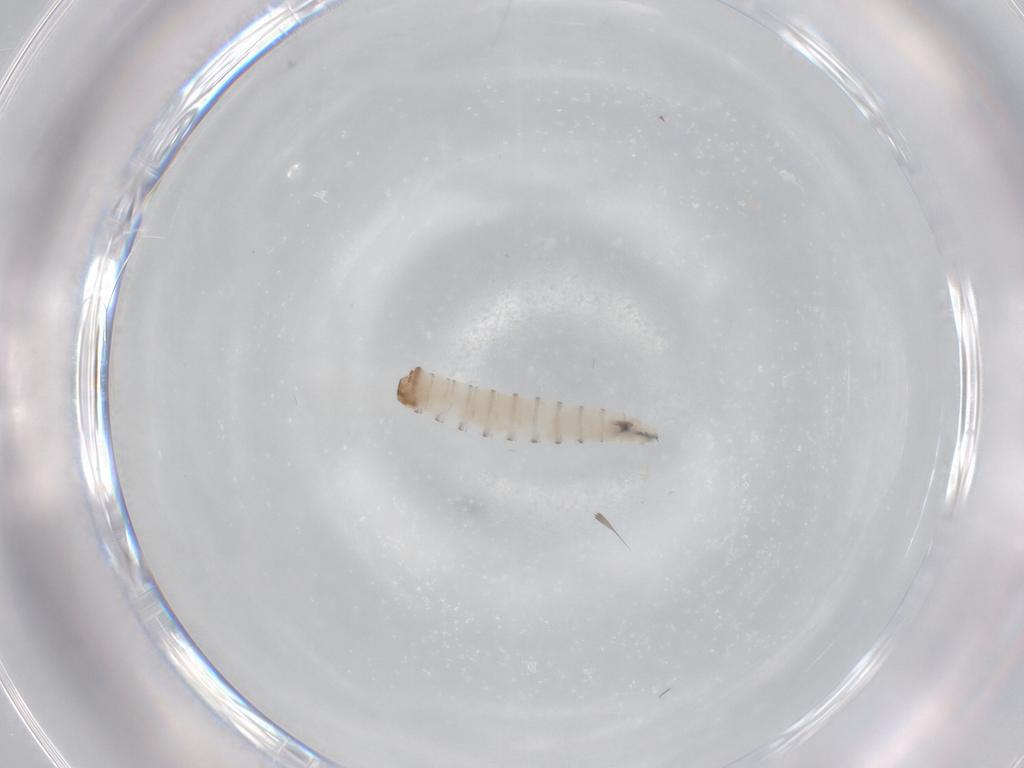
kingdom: Animalia
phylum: Arthropoda
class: Insecta
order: Diptera
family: Sarcophagidae
